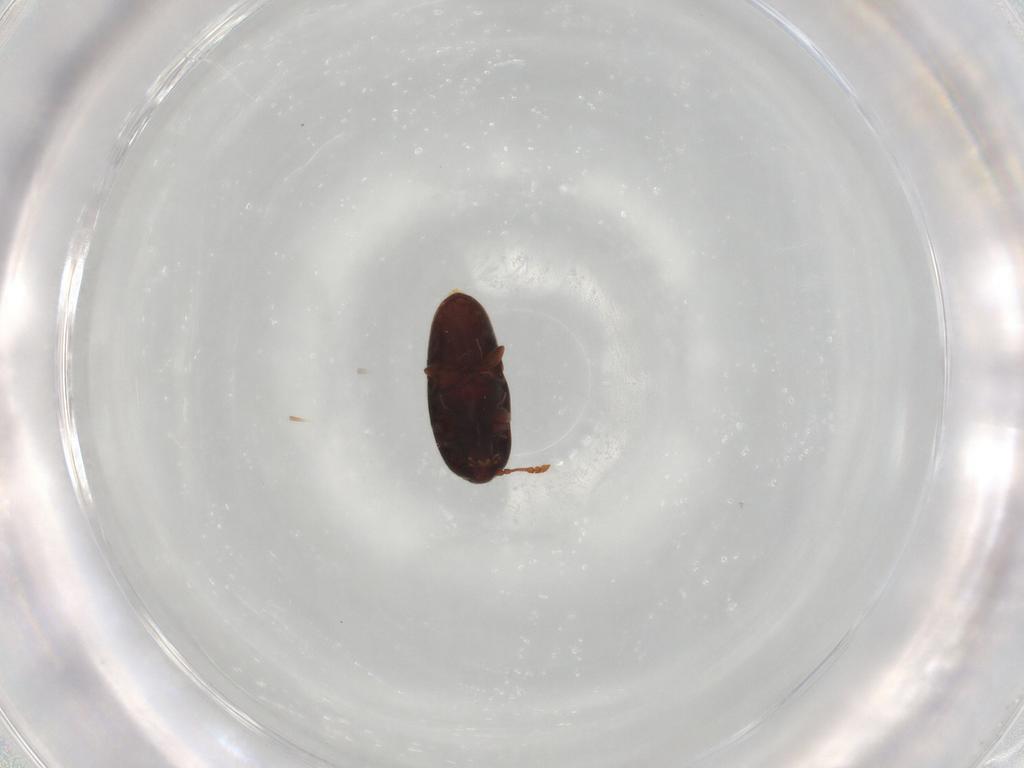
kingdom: Animalia
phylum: Arthropoda
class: Insecta
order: Coleoptera
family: Throscidae
